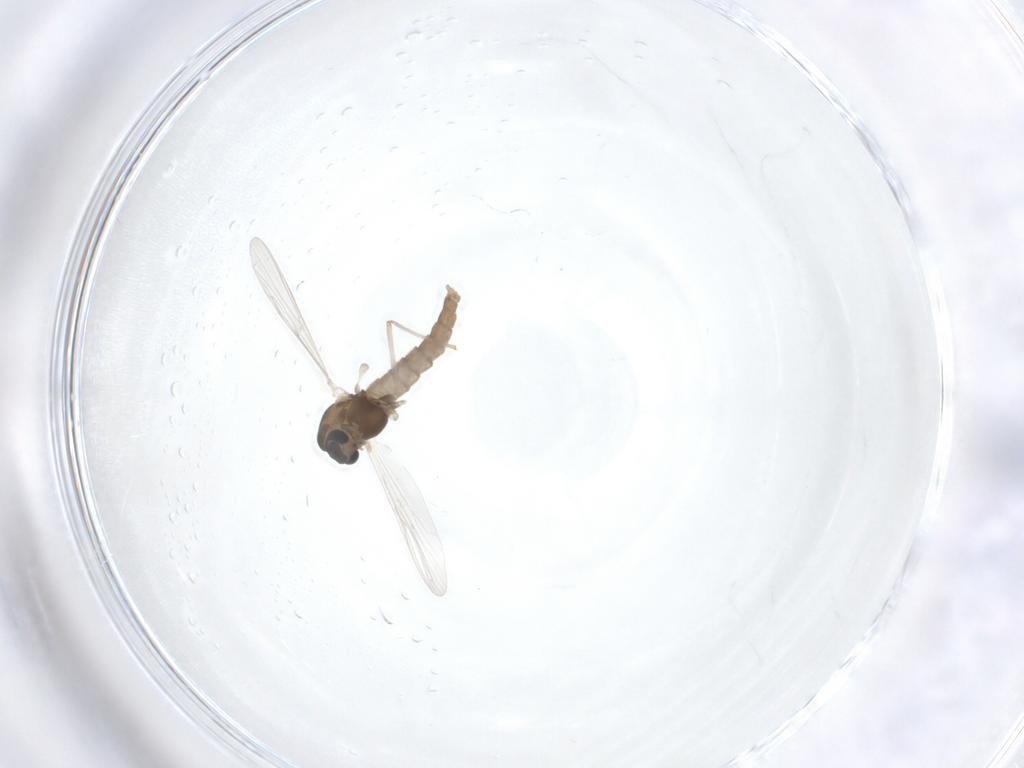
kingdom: Animalia
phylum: Arthropoda
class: Insecta
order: Diptera
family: Chironomidae
